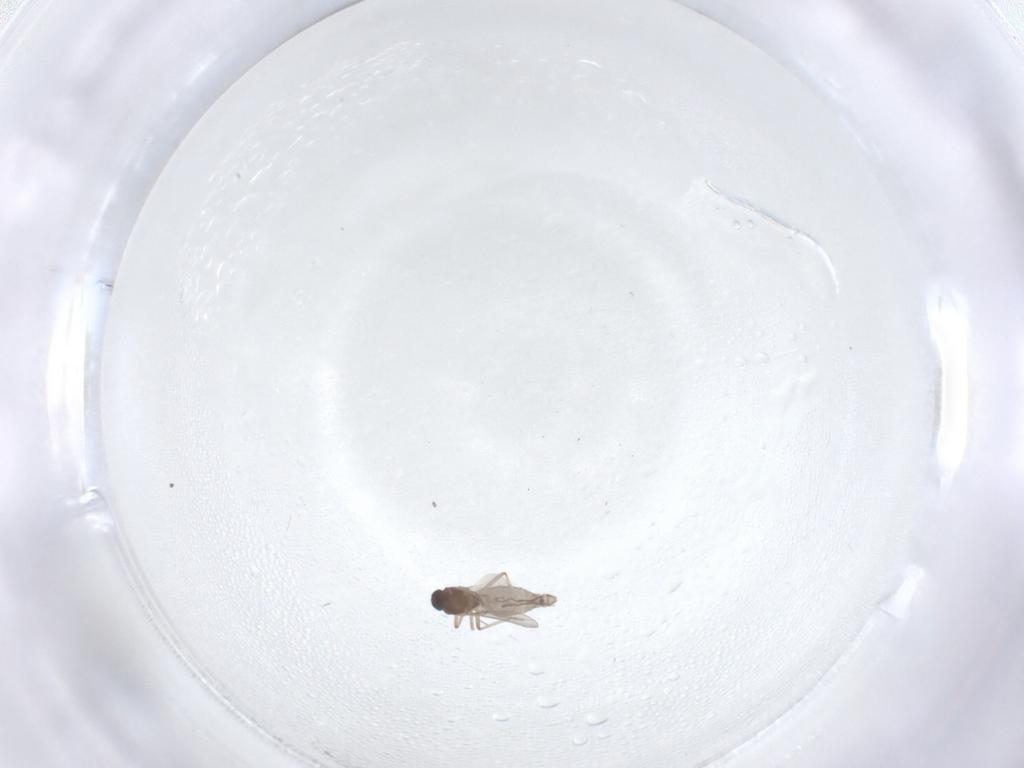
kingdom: Animalia
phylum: Arthropoda
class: Insecta
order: Diptera
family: Ceratopogonidae
